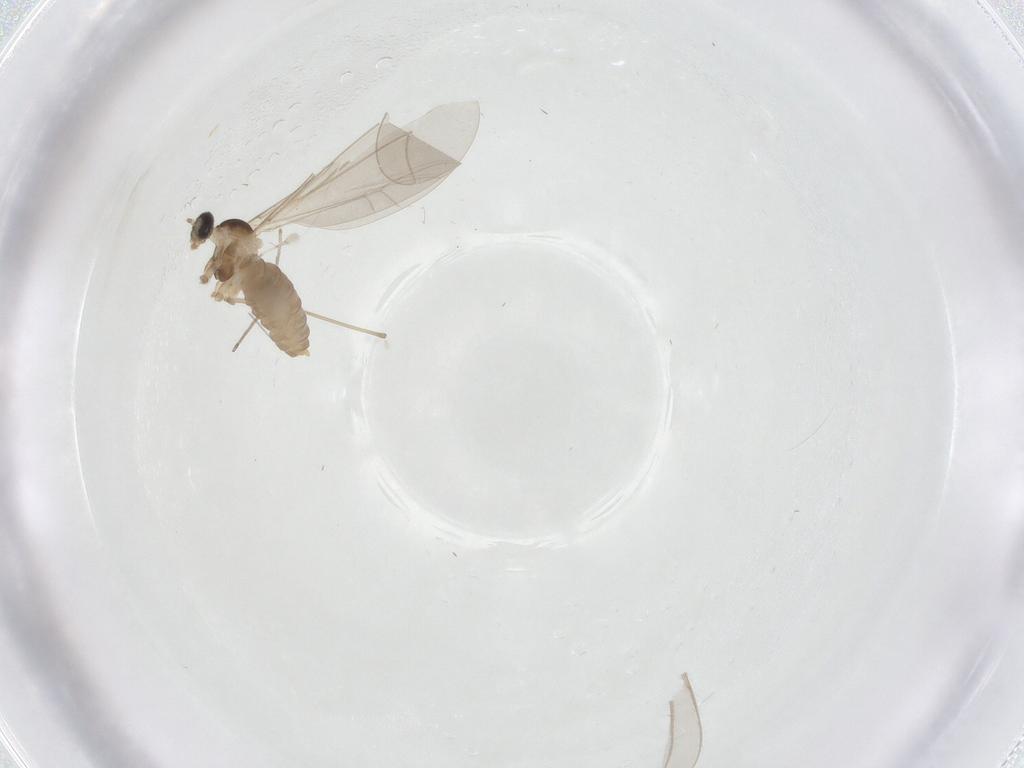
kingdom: Animalia
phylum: Arthropoda
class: Insecta
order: Diptera
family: Cecidomyiidae
